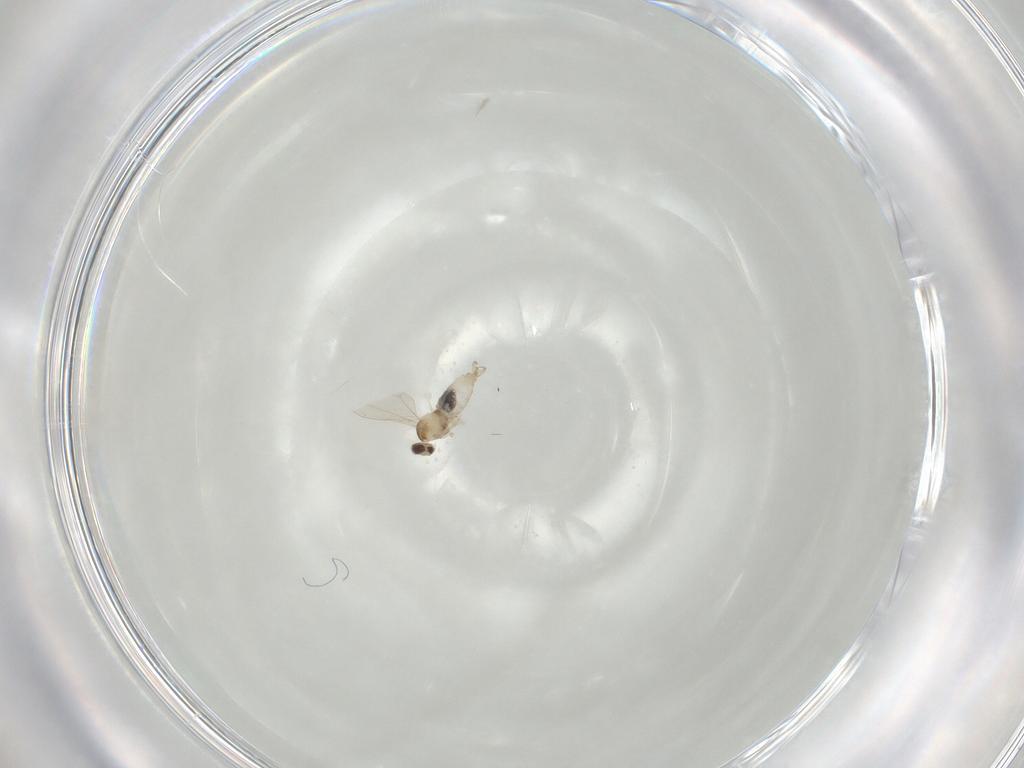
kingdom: Animalia
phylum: Arthropoda
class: Insecta
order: Diptera
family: Cecidomyiidae
